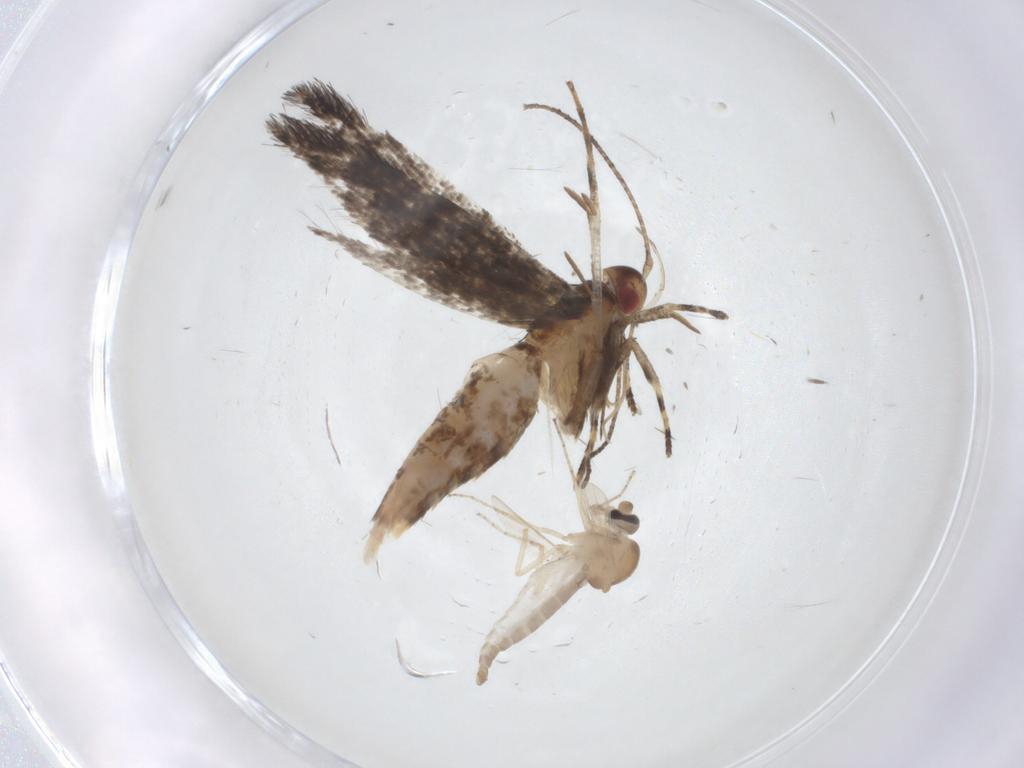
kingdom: Animalia
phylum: Arthropoda
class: Insecta
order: Diptera
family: Ceratopogonidae
